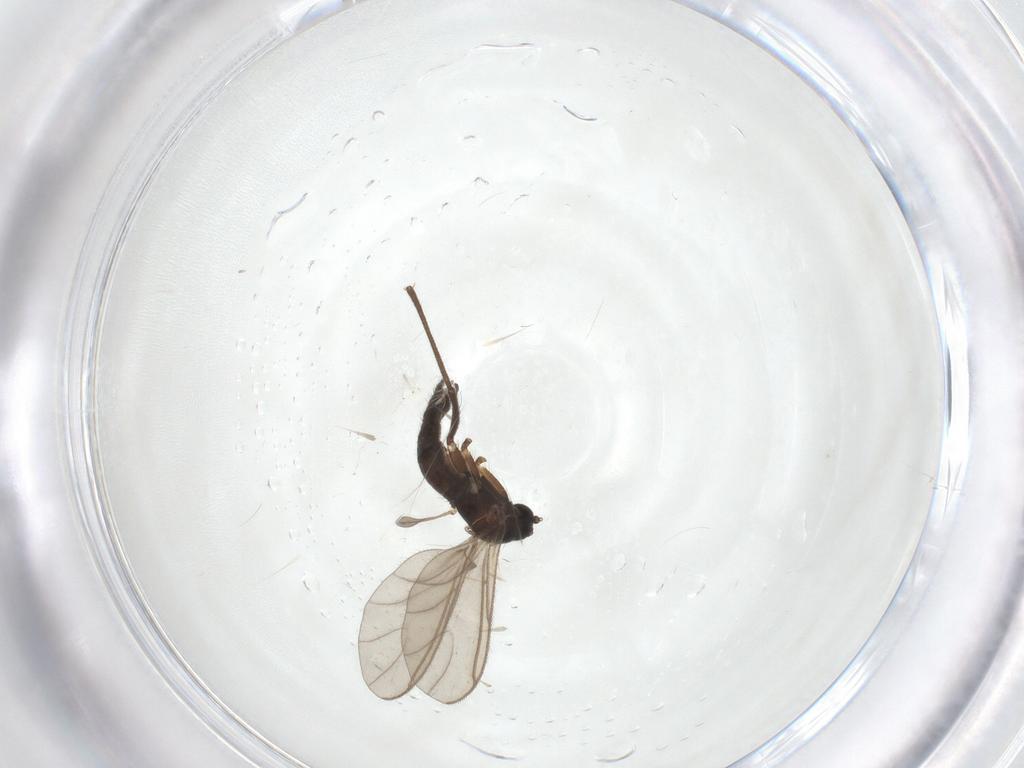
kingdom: Animalia
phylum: Arthropoda
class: Insecta
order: Diptera
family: Sciaridae
